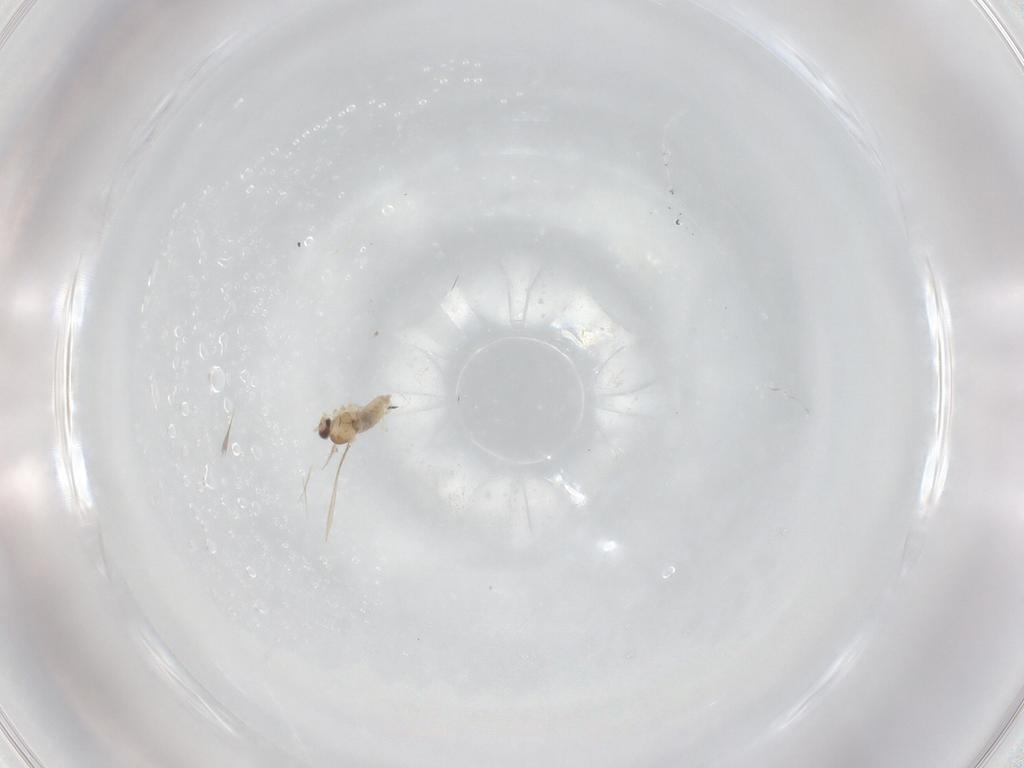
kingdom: Animalia
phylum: Arthropoda
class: Insecta
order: Diptera
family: Cecidomyiidae
